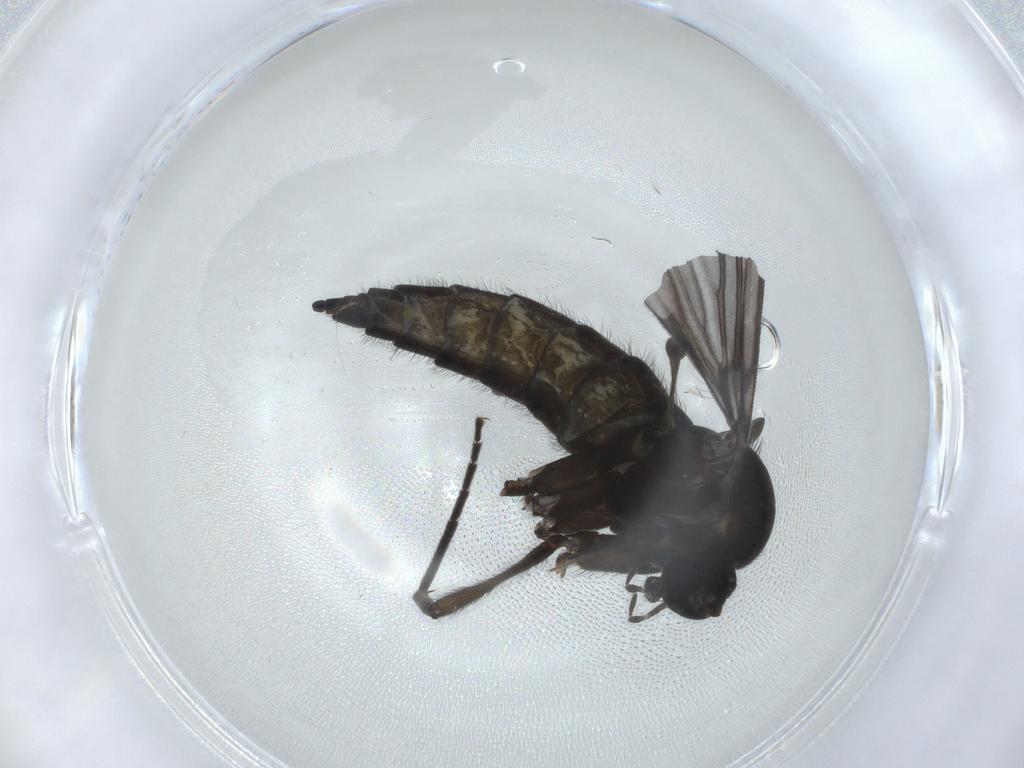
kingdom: Animalia
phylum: Arthropoda
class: Insecta
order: Diptera
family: Sciaridae
